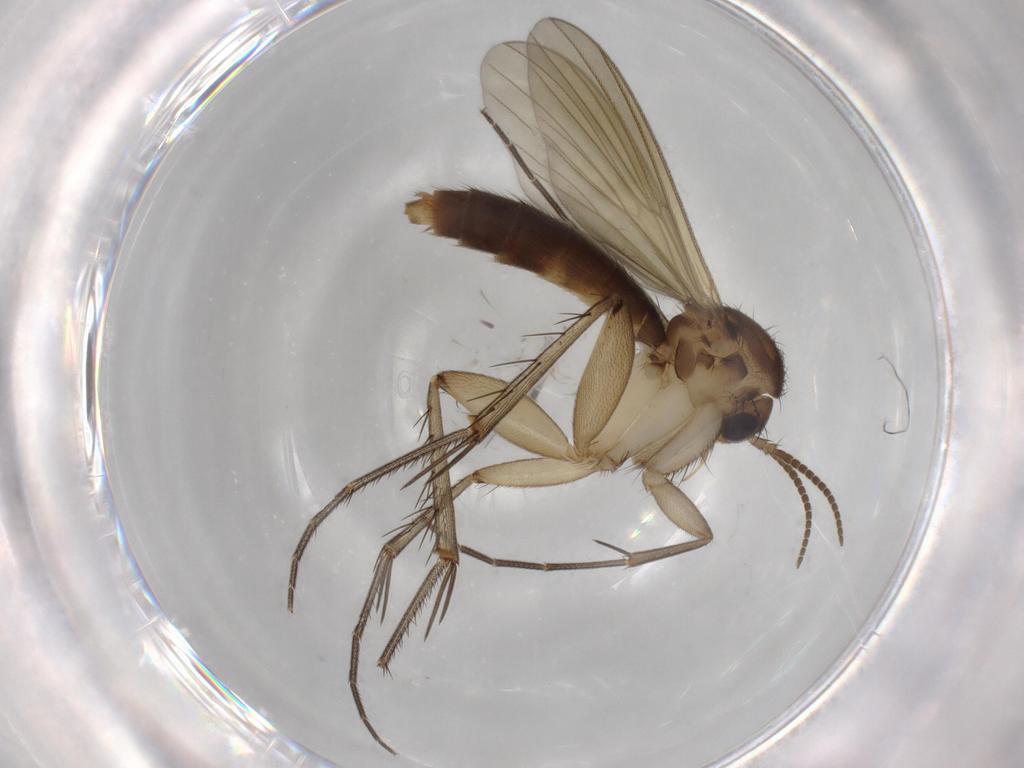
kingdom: Animalia
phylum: Arthropoda
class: Insecta
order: Diptera
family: Dolichopodidae
